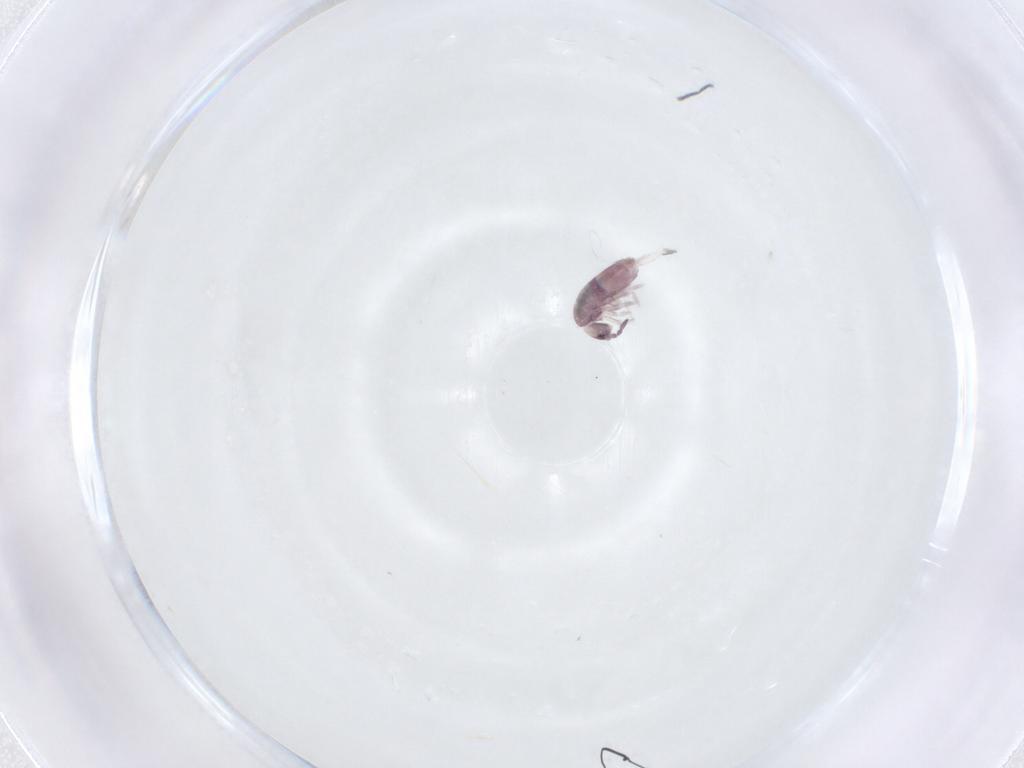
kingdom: Animalia
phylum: Arthropoda
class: Collembola
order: Entomobryomorpha
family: Entomobryidae
